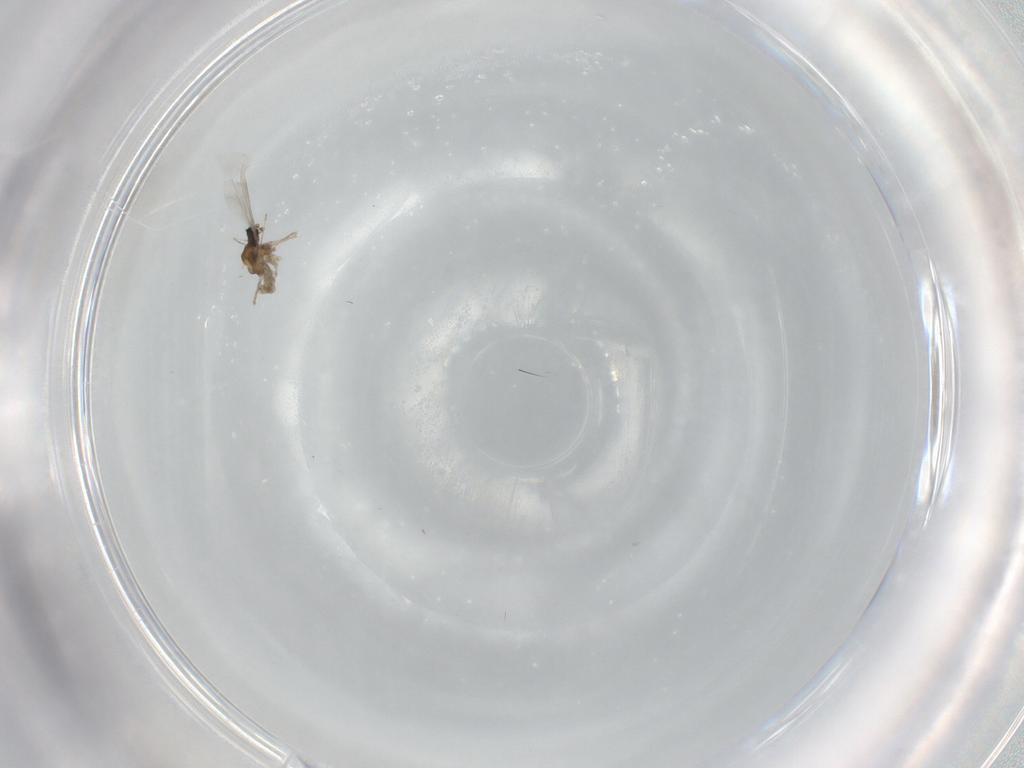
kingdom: Animalia
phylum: Arthropoda
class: Insecta
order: Diptera
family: Cecidomyiidae
